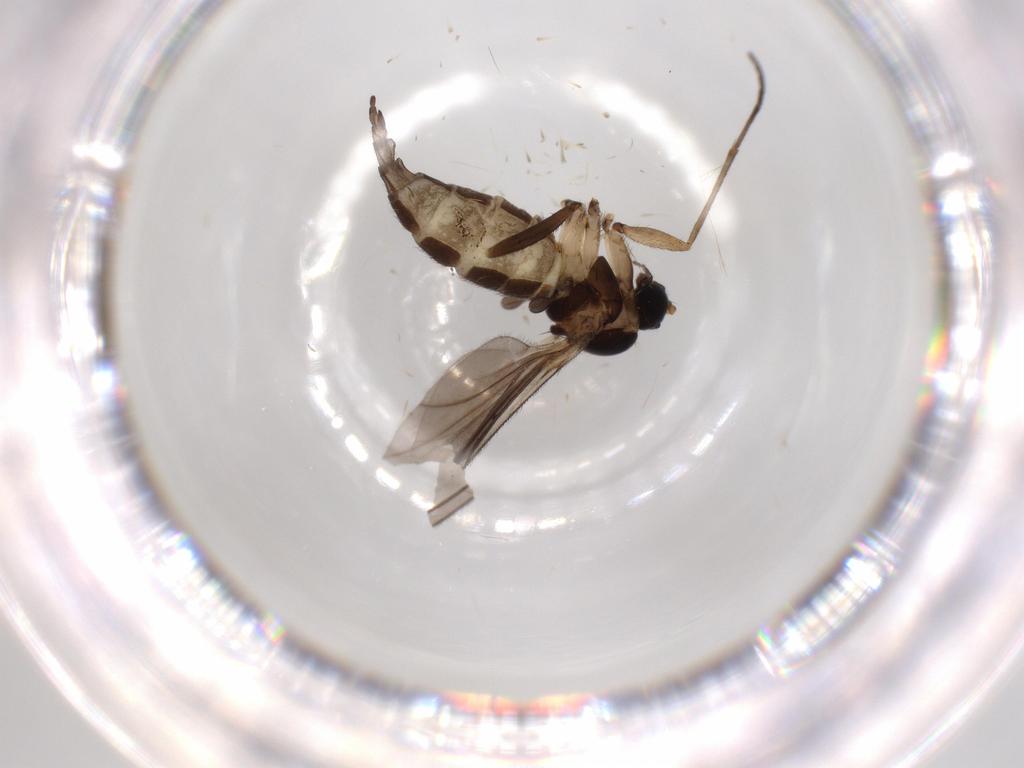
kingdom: Animalia
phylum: Arthropoda
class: Insecta
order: Diptera
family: Sciaridae
